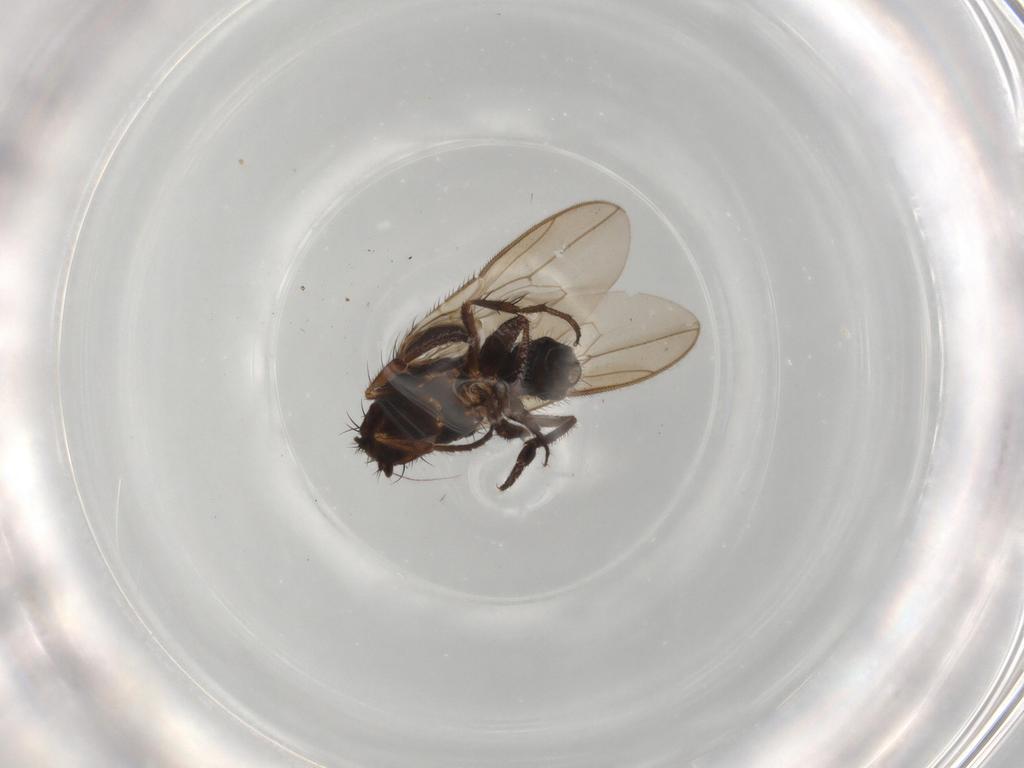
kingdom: Animalia
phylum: Arthropoda
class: Insecta
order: Diptera
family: Sphaeroceridae
